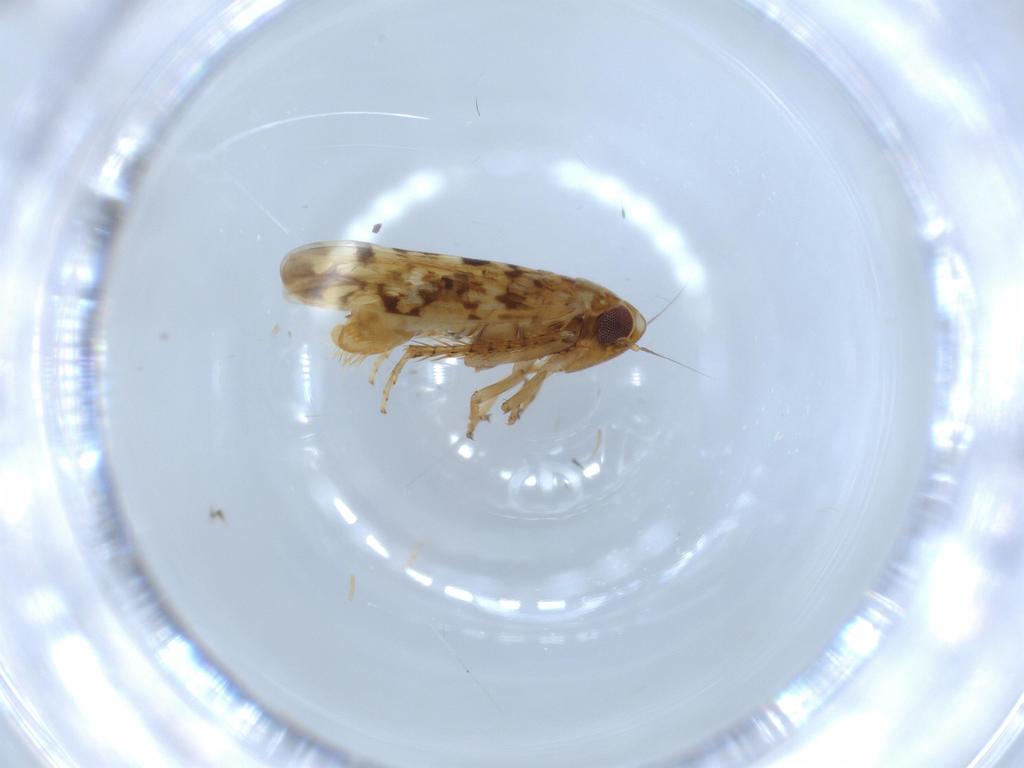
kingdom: Animalia
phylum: Arthropoda
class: Insecta
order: Hemiptera
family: Cicadellidae
